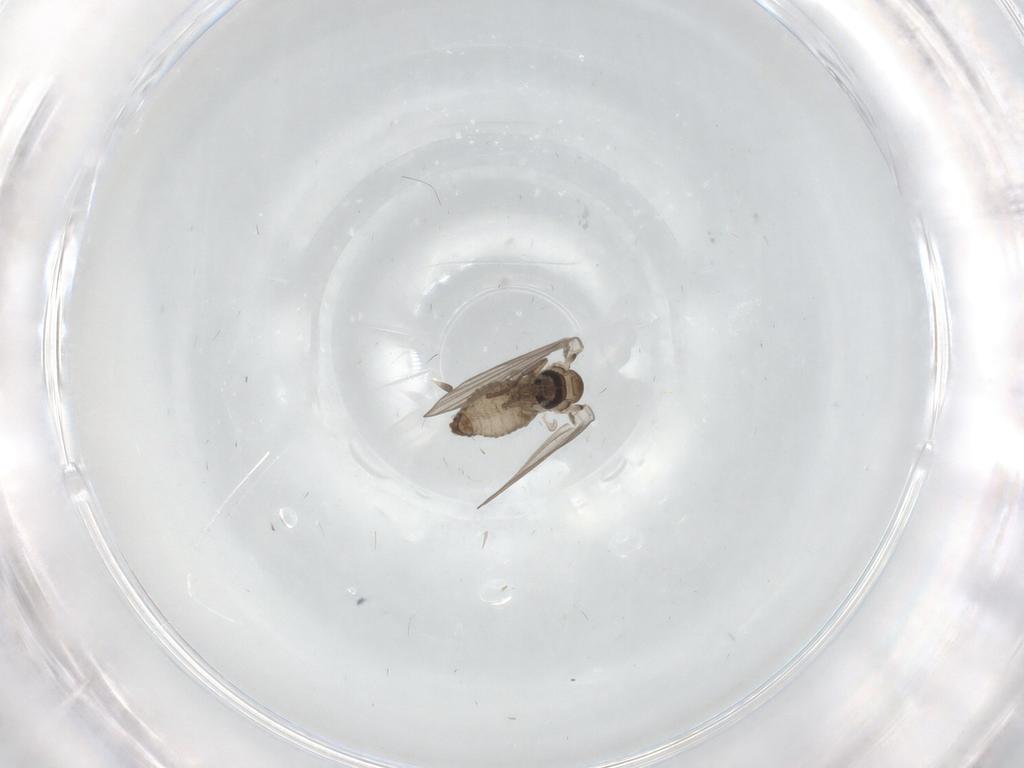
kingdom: Animalia
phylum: Arthropoda
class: Insecta
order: Diptera
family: Psychodidae
